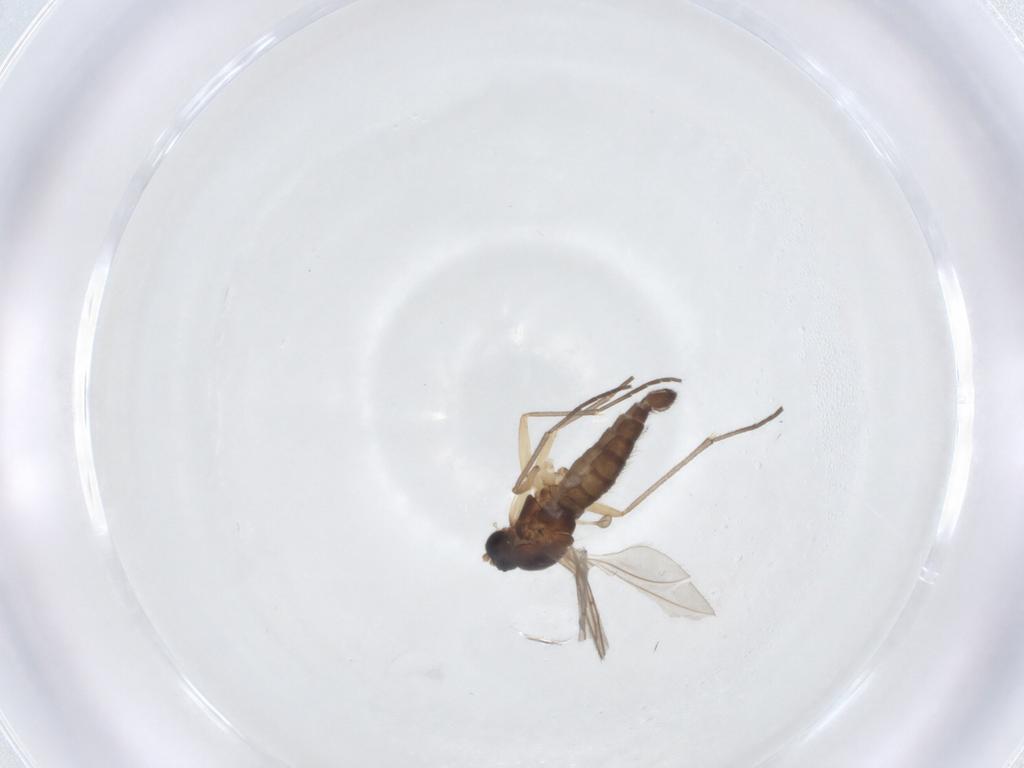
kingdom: Animalia
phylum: Arthropoda
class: Insecta
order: Diptera
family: Sciaridae
